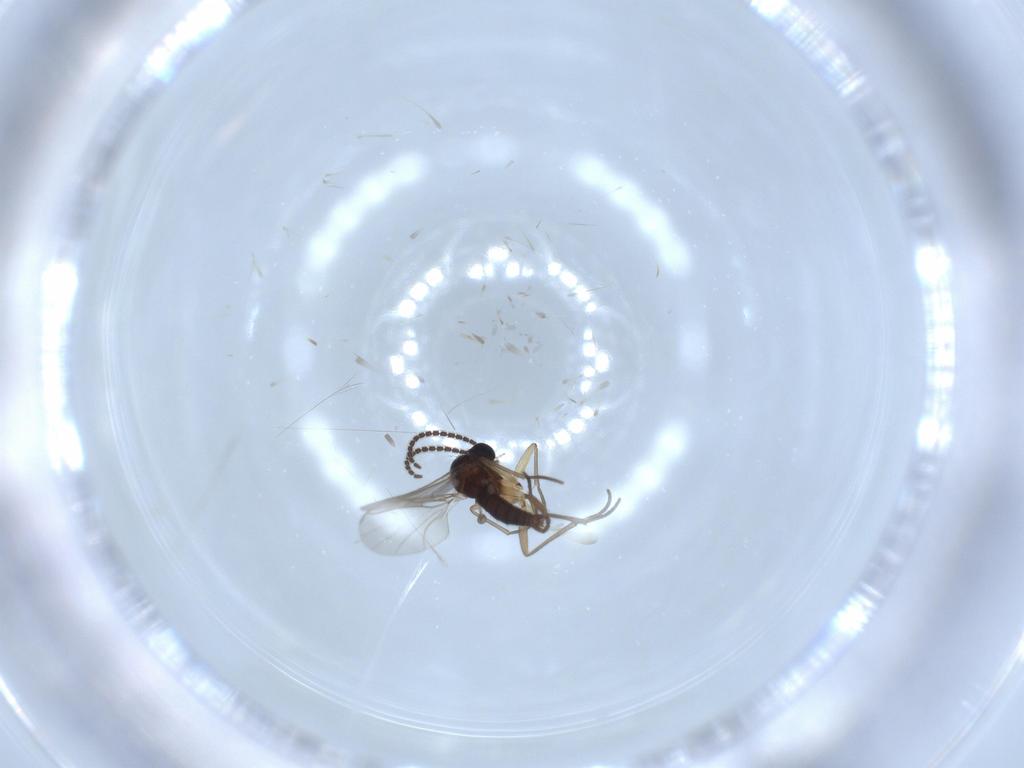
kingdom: Animalia
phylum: Arthropoda
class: Insecta
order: Diptera
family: Sciaridae
